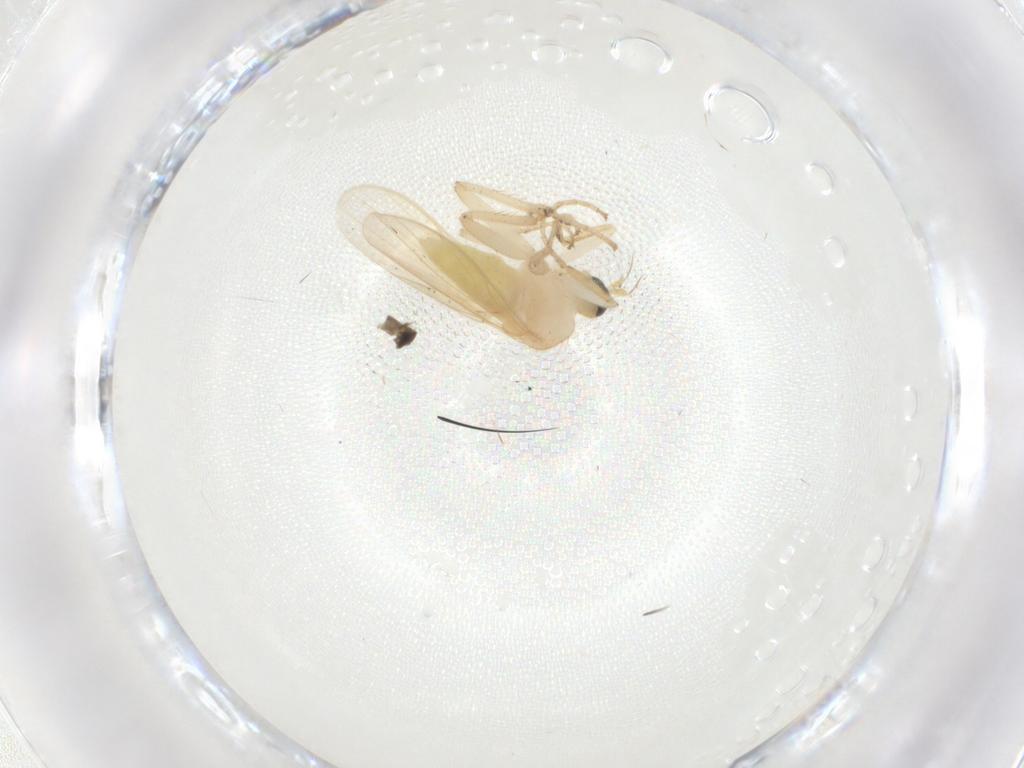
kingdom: Animalia
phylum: Arthropoda
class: Insecta
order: Diptera
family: Hybotidae
